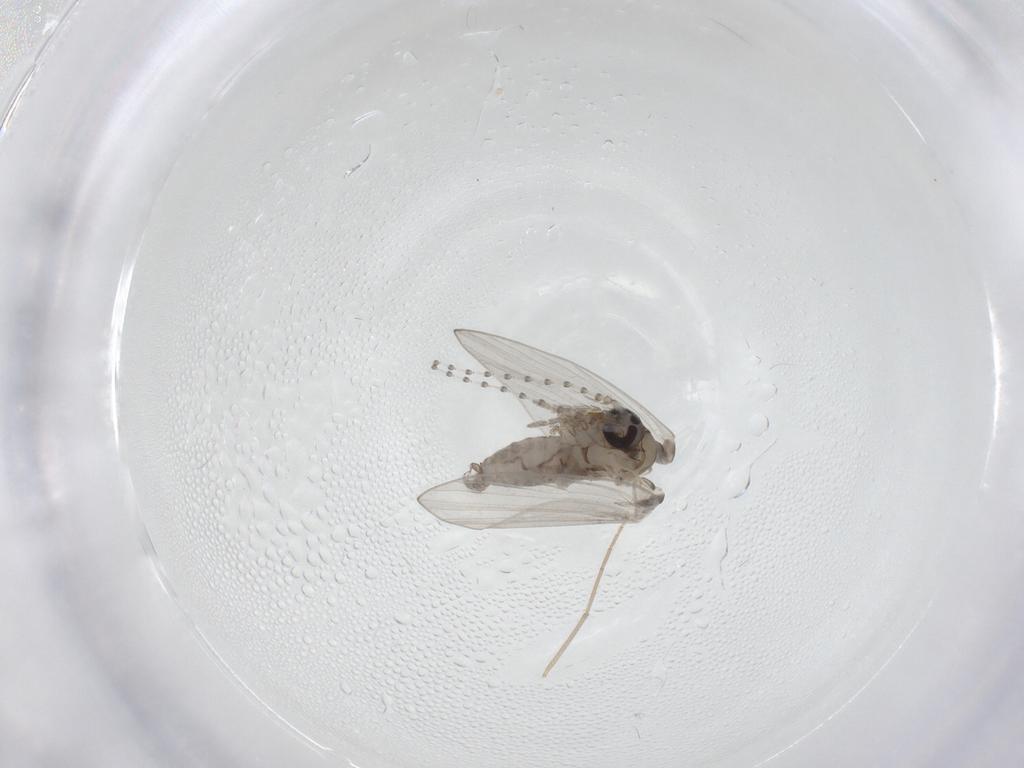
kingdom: Animalia
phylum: Arthropoda
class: Insecta
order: Diptera
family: Psychodidae
